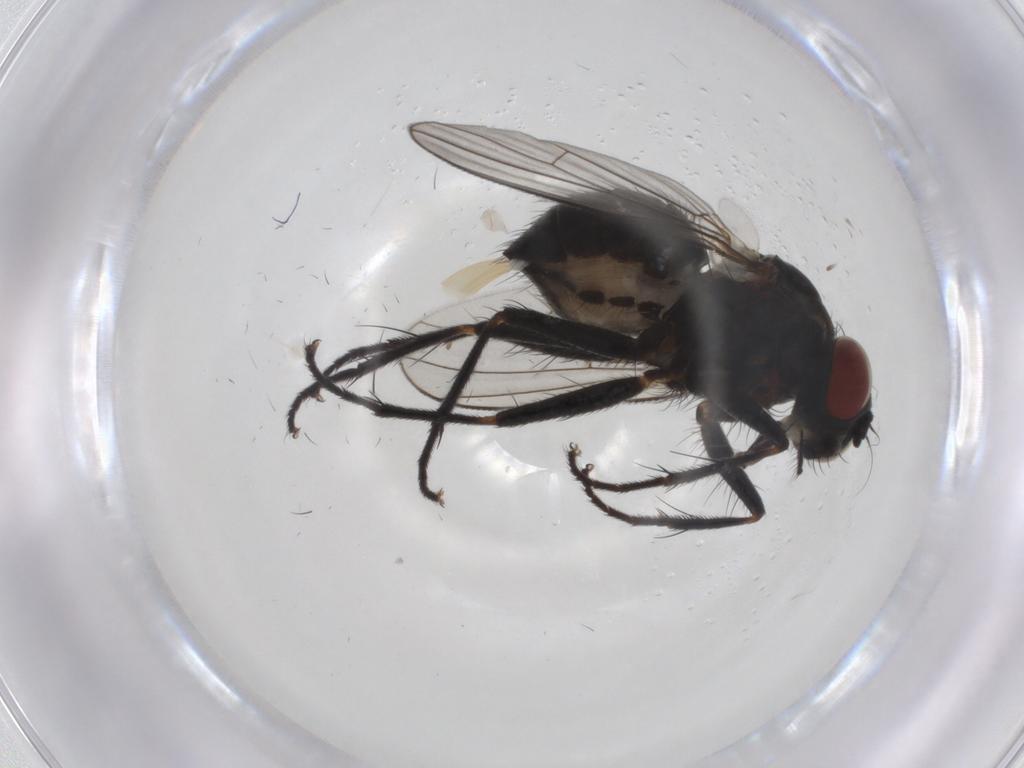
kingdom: Animalia
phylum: Arthropoda
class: Insecta
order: Diptera
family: Muscidae
